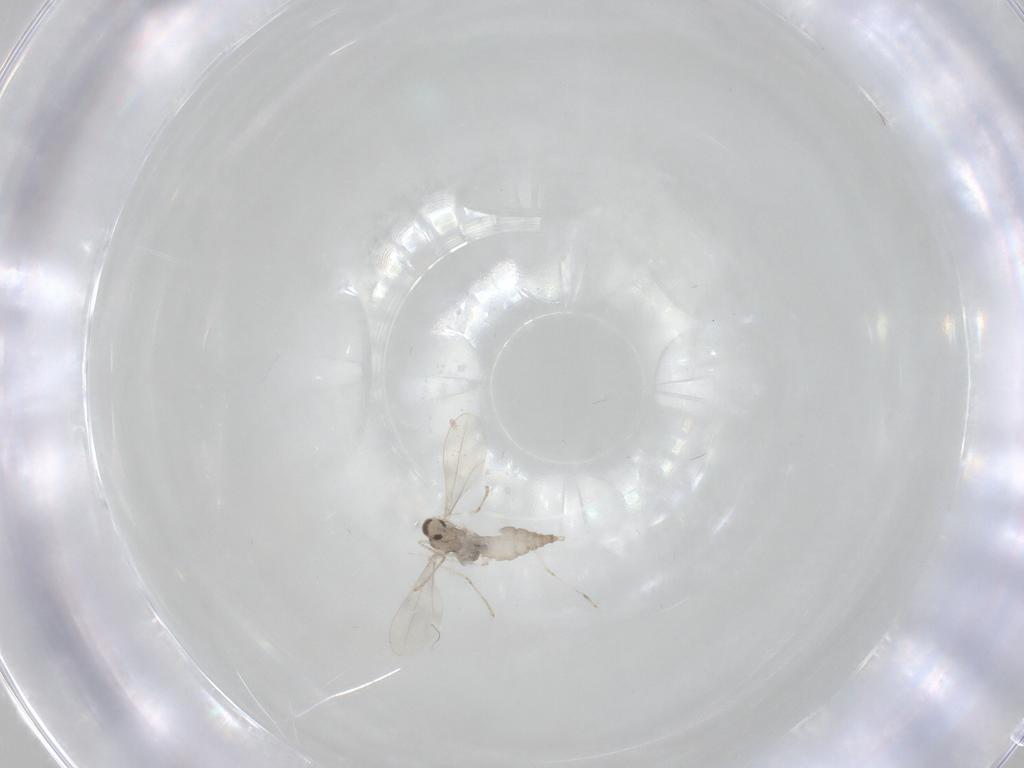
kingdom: Animalia
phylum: Arthropoda
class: Insecta
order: Diptera
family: Cecidomyiidae
